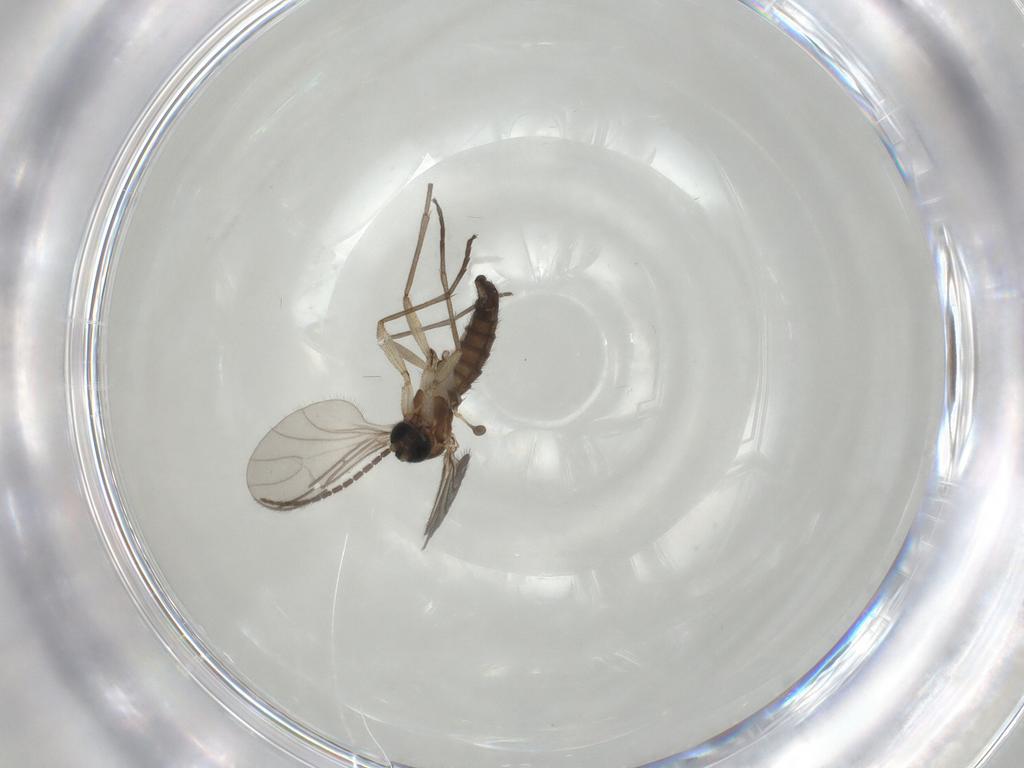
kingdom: Animalia
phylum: Arthropoda
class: Insecta
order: Diptera
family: Sciaridae
